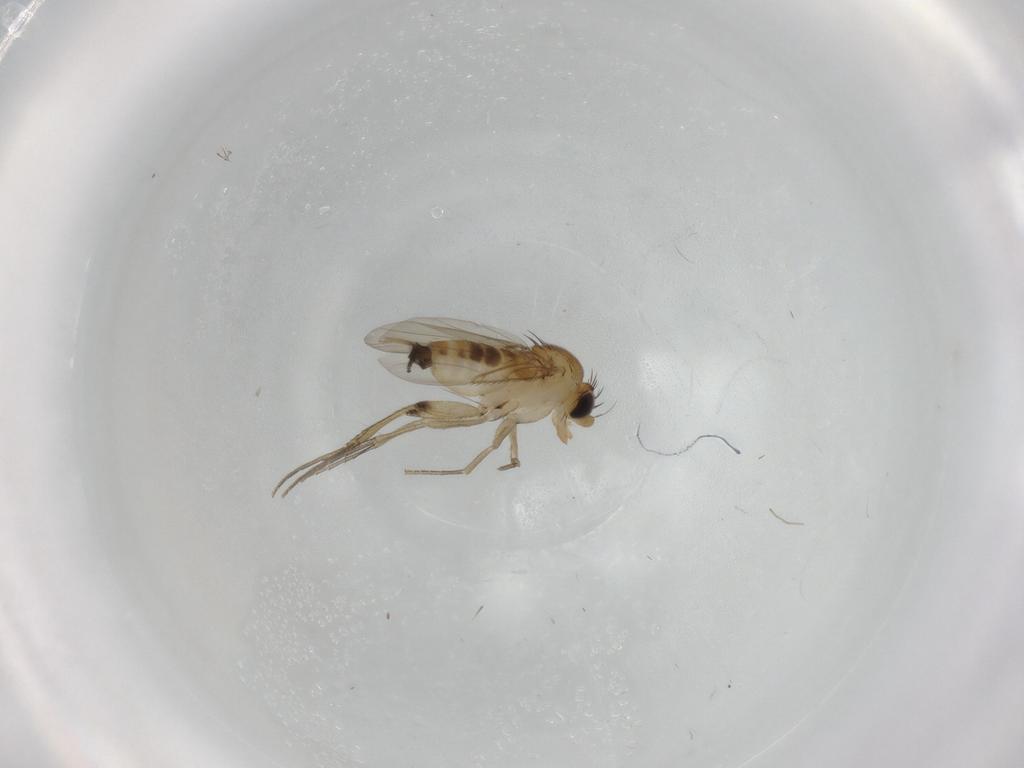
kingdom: Animalia
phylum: Arthropoda
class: Insecta
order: Diptera
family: Phoridae
